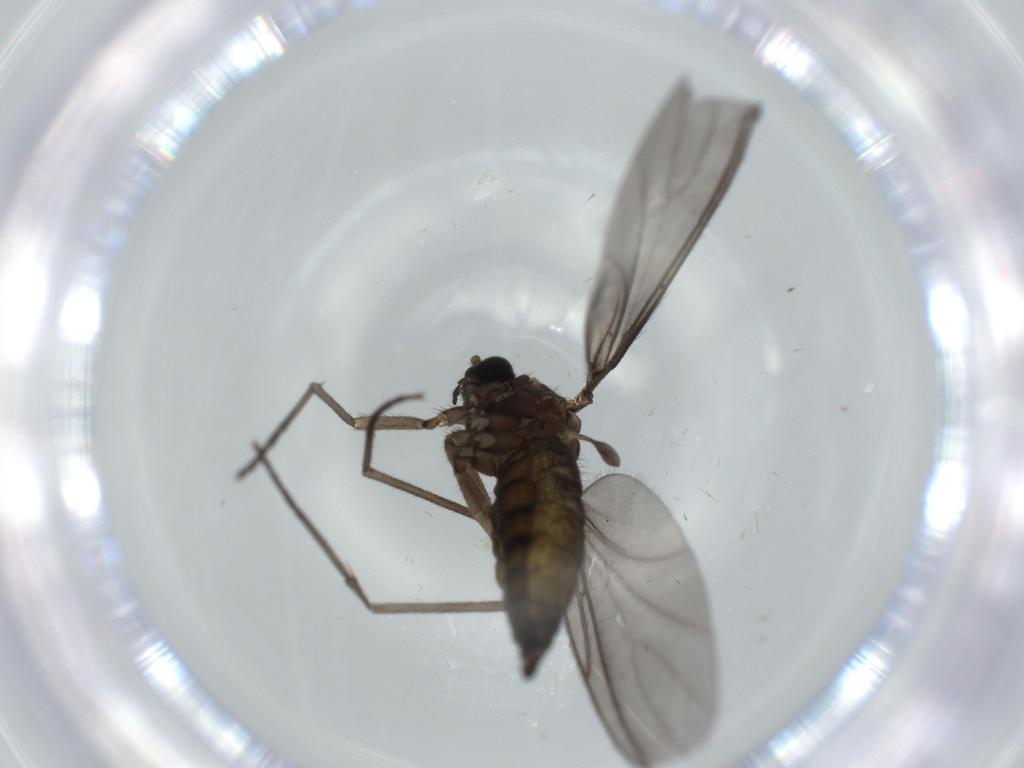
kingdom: Animalia
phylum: Arthropoda
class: Insecta
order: Diptera
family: Sciaridae
